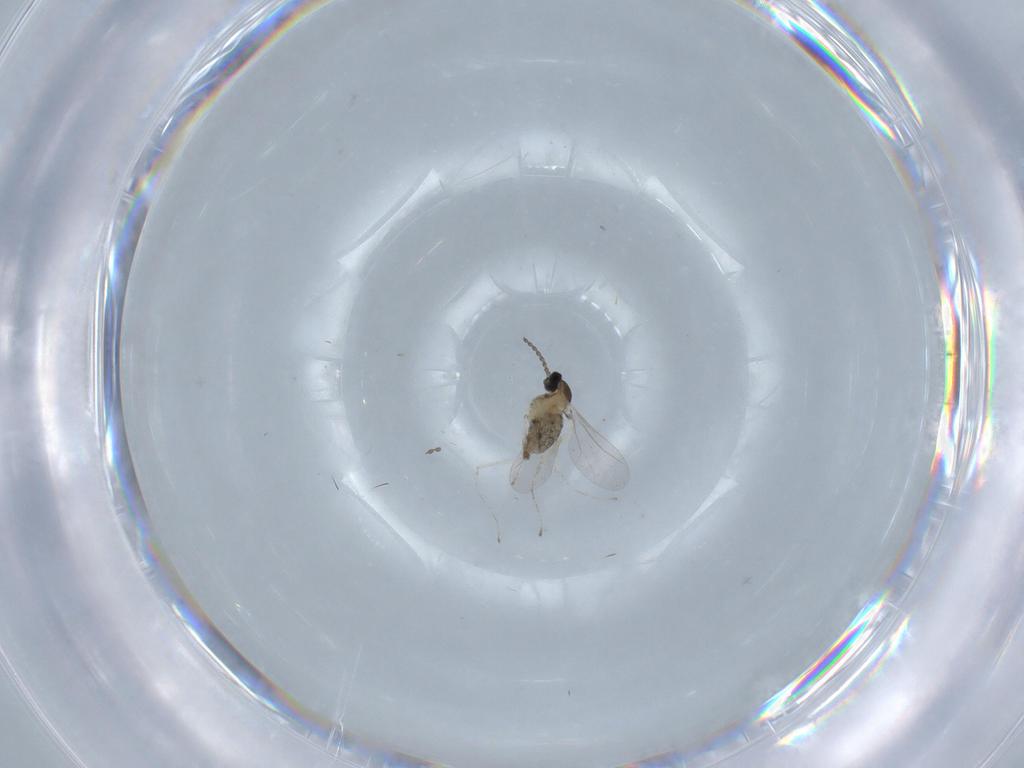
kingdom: Animalia
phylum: Arthropoda
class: Insecta
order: Diptera
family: Cecidomyiidae
